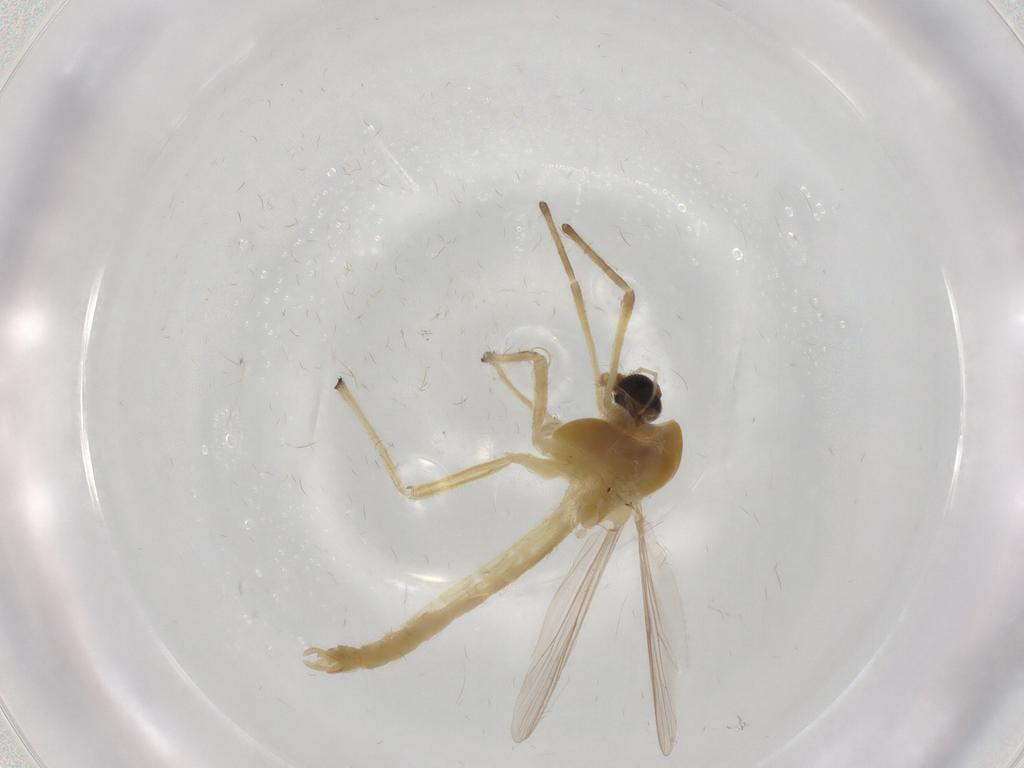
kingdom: Animalia
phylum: Arthropoda
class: Insecta
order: Diptera
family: Chironomidae
